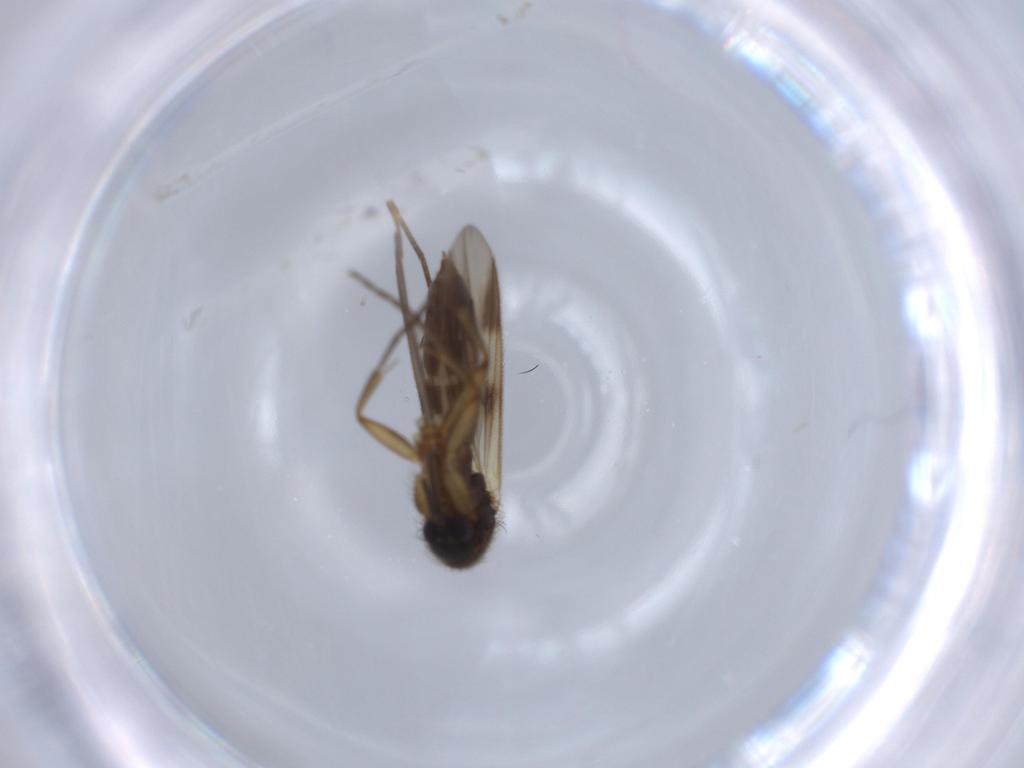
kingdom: Animalia
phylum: Arthropoda
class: Insecta
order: Diptera
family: Mycetophilidae
